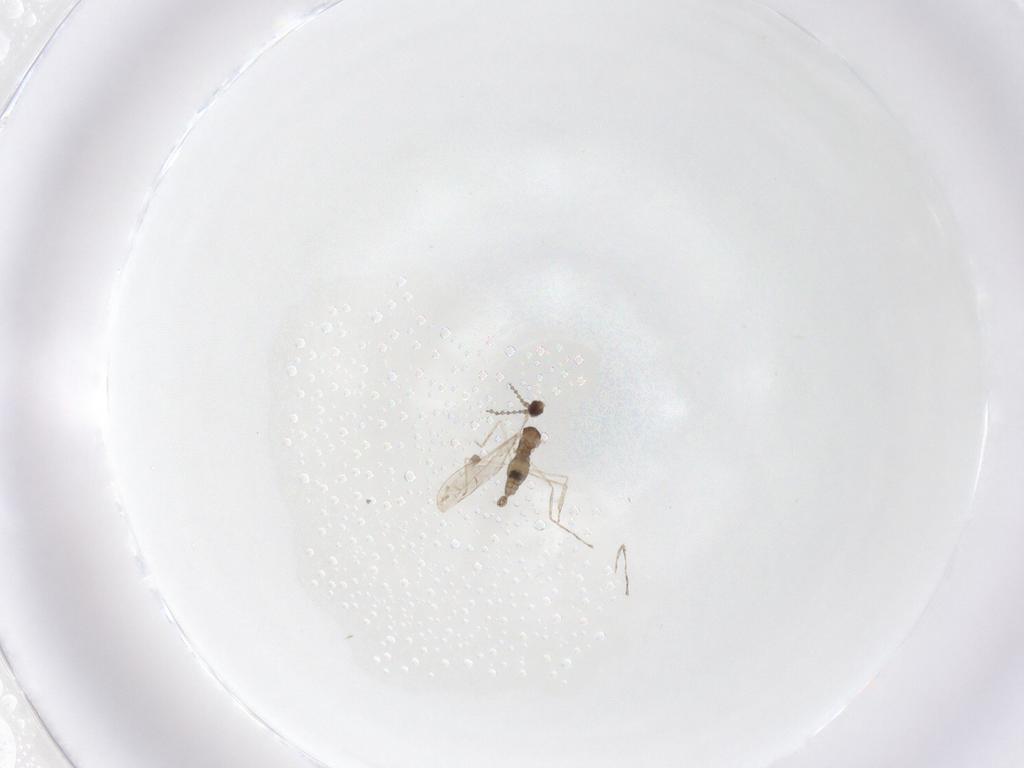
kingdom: Animalia
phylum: Arthropoda
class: Insecta
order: Diptera
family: Cecidomyiidae
